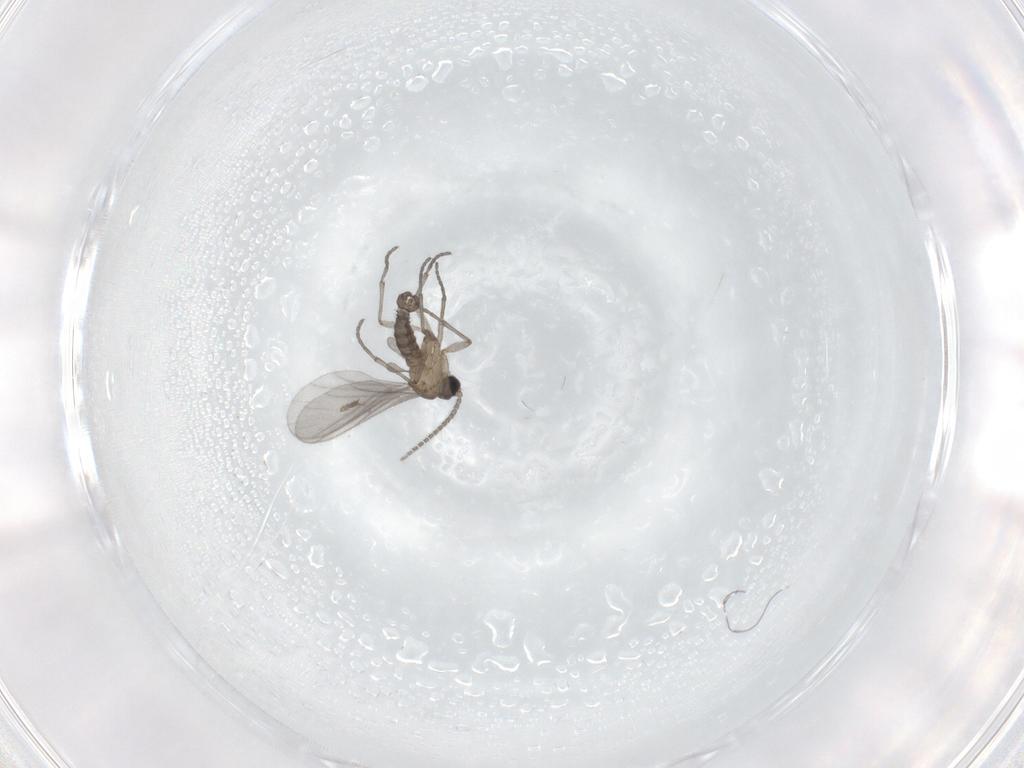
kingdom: Animalia
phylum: Arthropoda
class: Insecta
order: Diptera
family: Sciaridae
